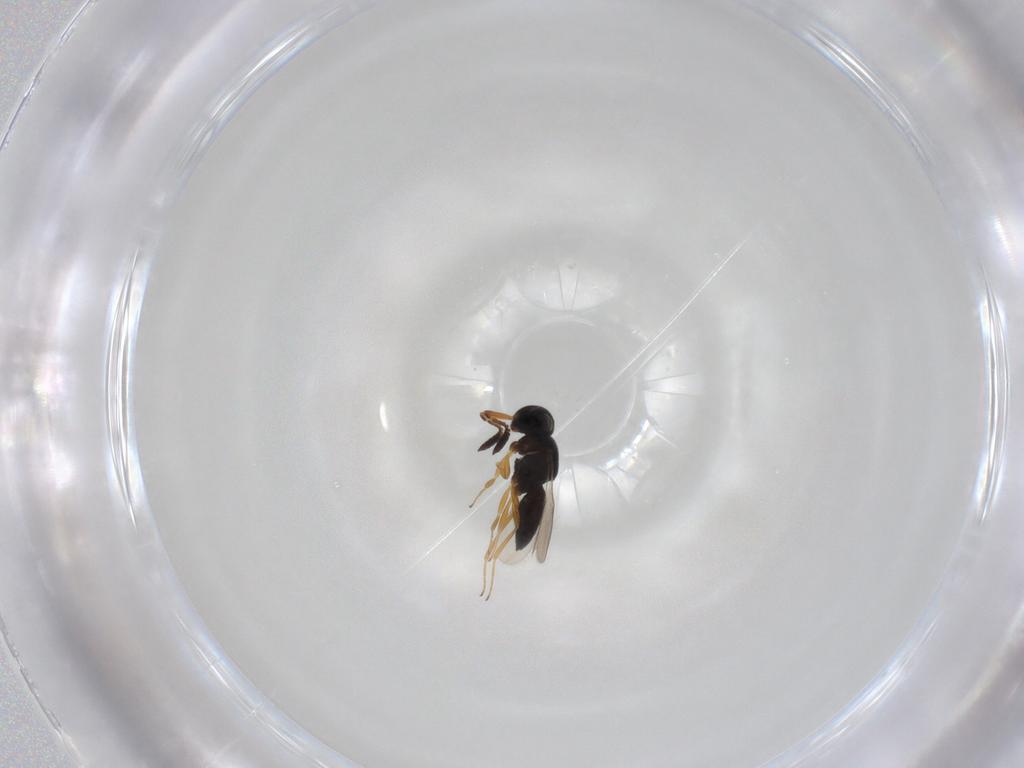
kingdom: Animalia
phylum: Arthropoda
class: Insecta
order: Hymenoptera
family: Scelionidae
